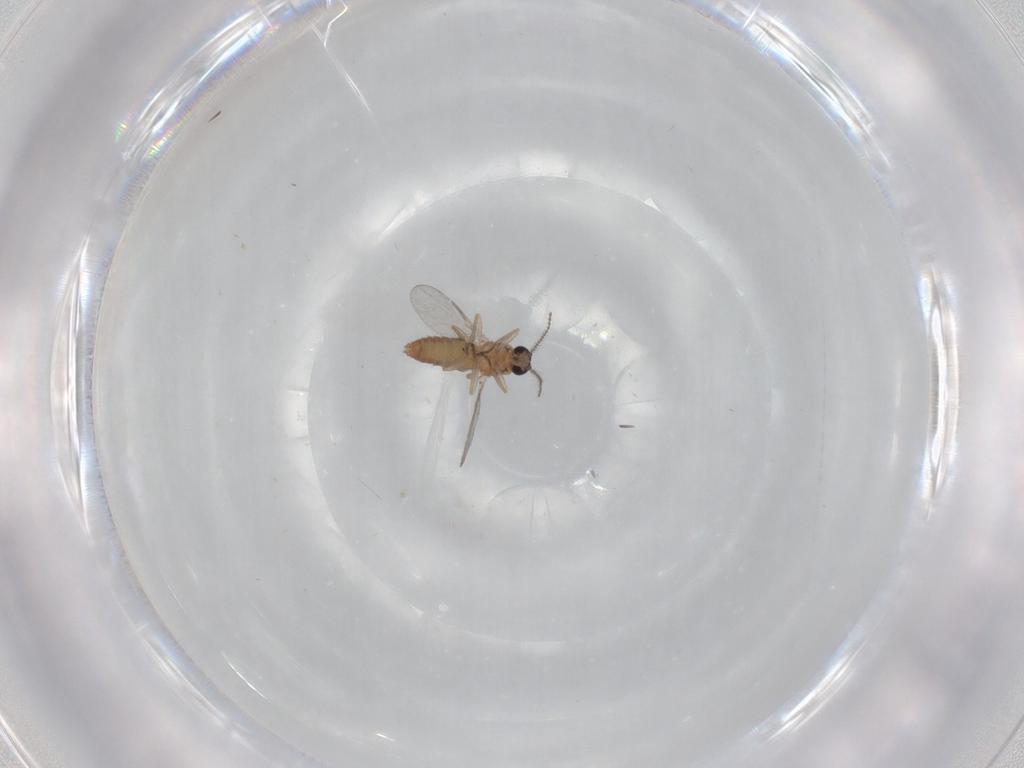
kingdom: Animalia
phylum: Arthropoda
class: Insecta
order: Diptera
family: Ceratopogonidae
